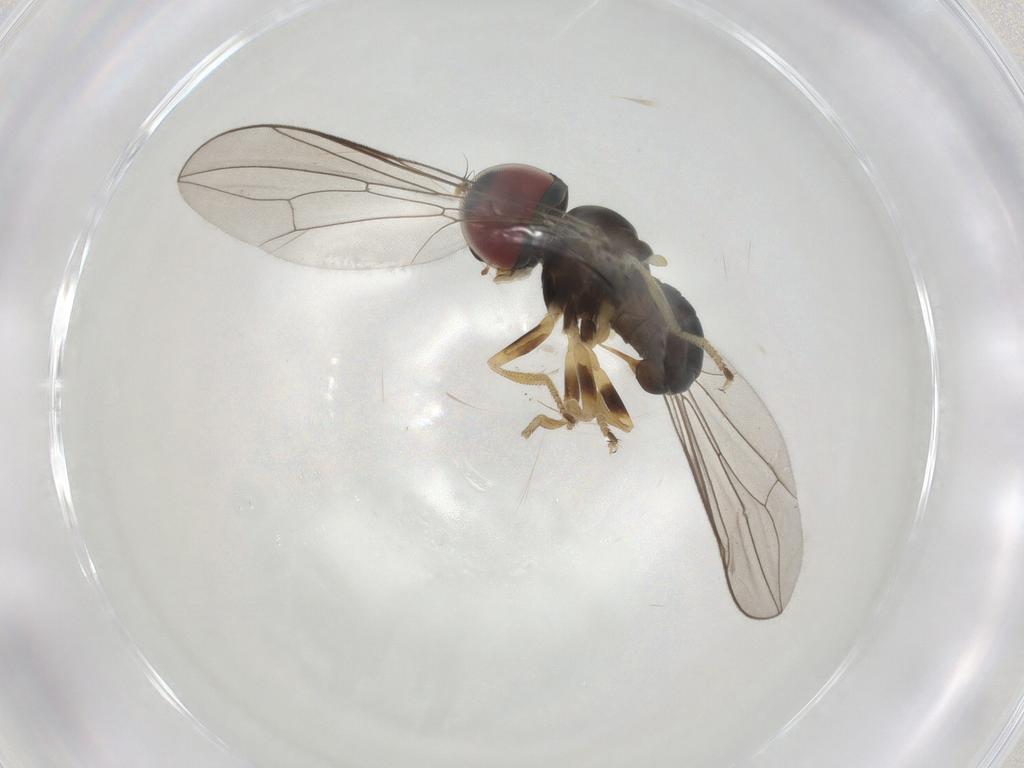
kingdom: Animalia
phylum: Arthropoda
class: Insecta
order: Diptera
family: Pipunculidae
